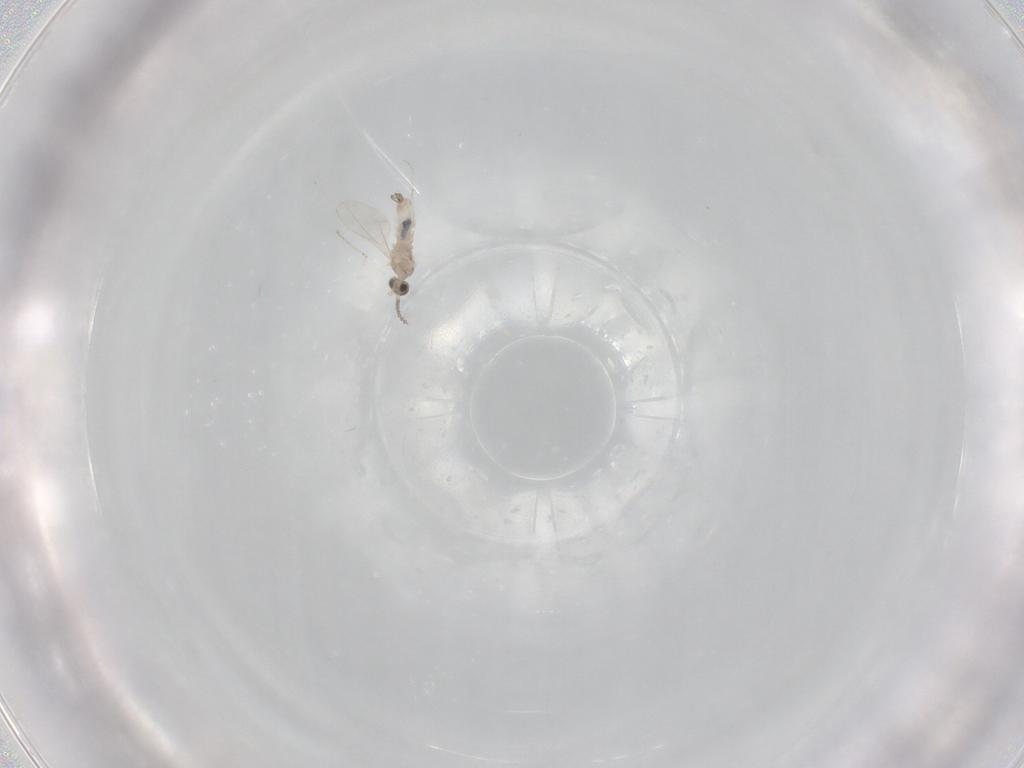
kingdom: Animalia
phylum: Arthropoda
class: Insecta
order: Diptera
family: Cecidomyiidae
